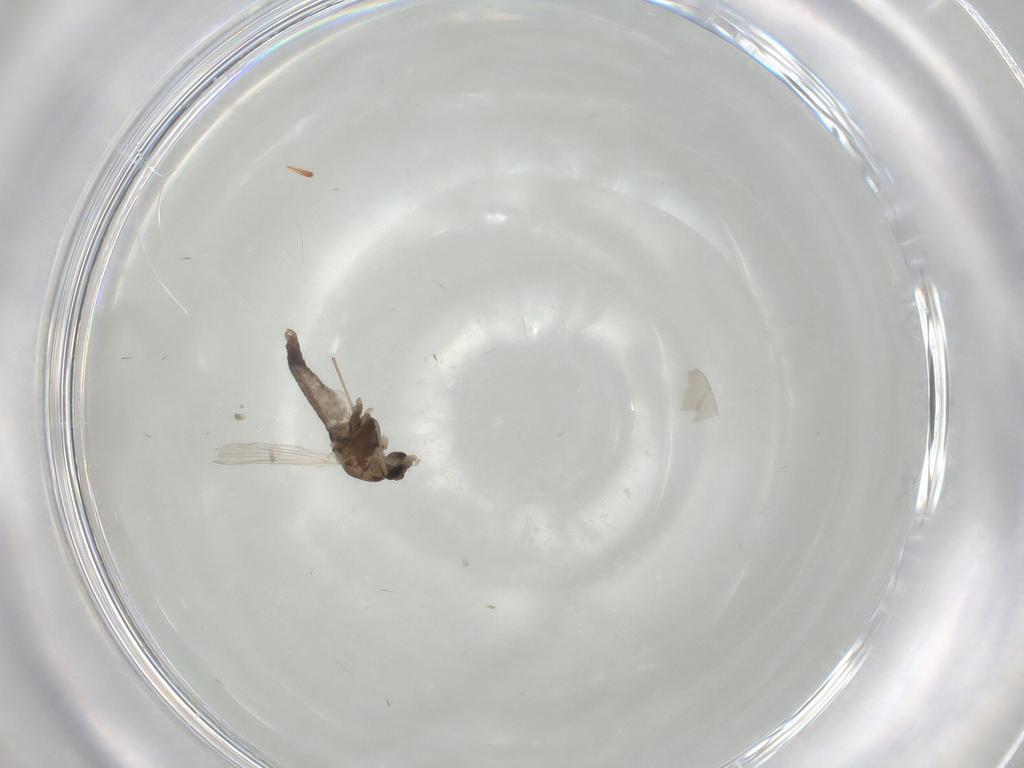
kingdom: Animalia
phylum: Arthropoda
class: Insecta
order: Diptera
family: Chironomidae
